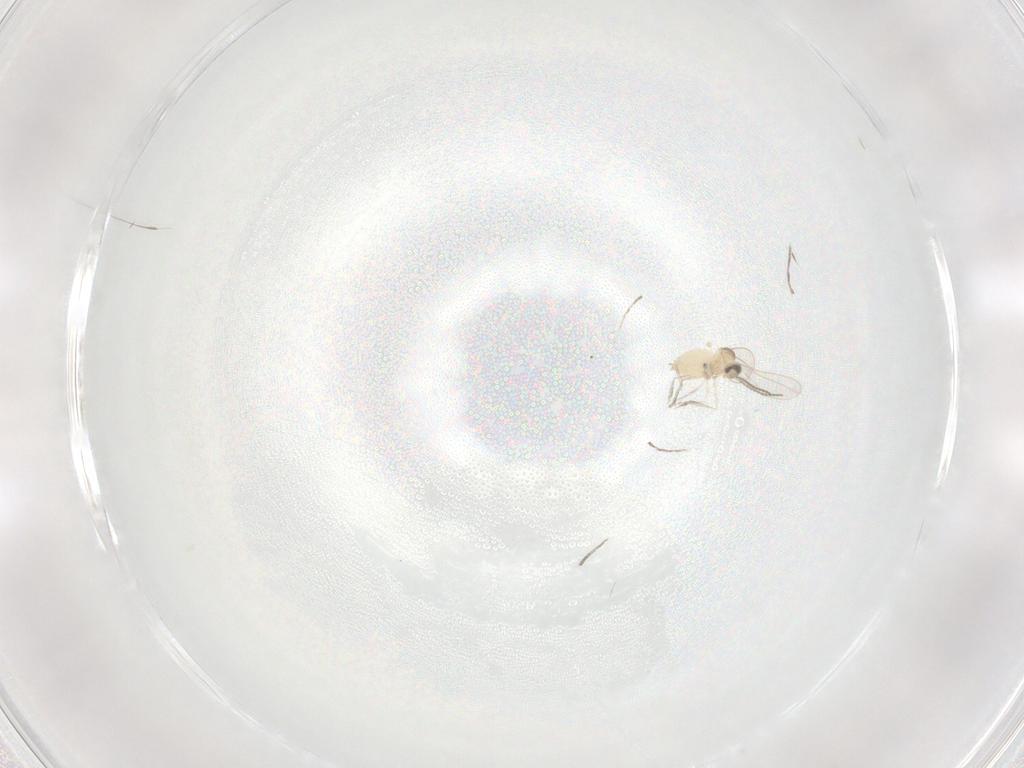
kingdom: Animalia
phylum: Arthropoda
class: Insecta
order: Diptera
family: Cecidomyiidae
